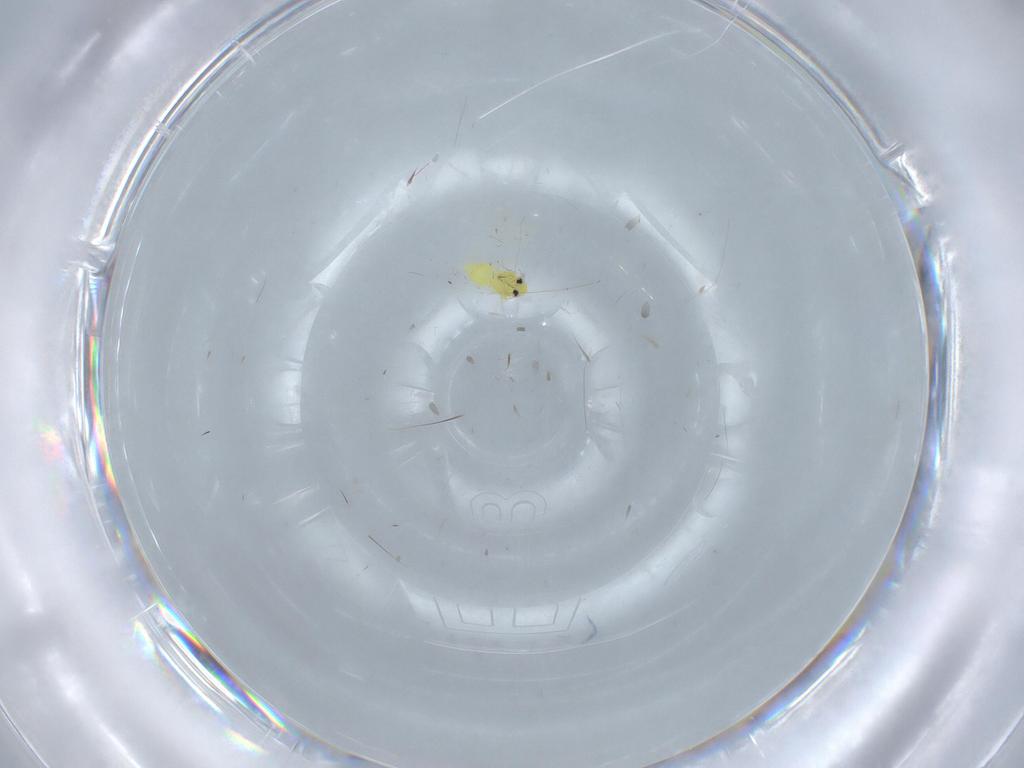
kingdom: Animalia
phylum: Arthropoda
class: Insecta
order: Hemiptera
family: Aleyrodidae
